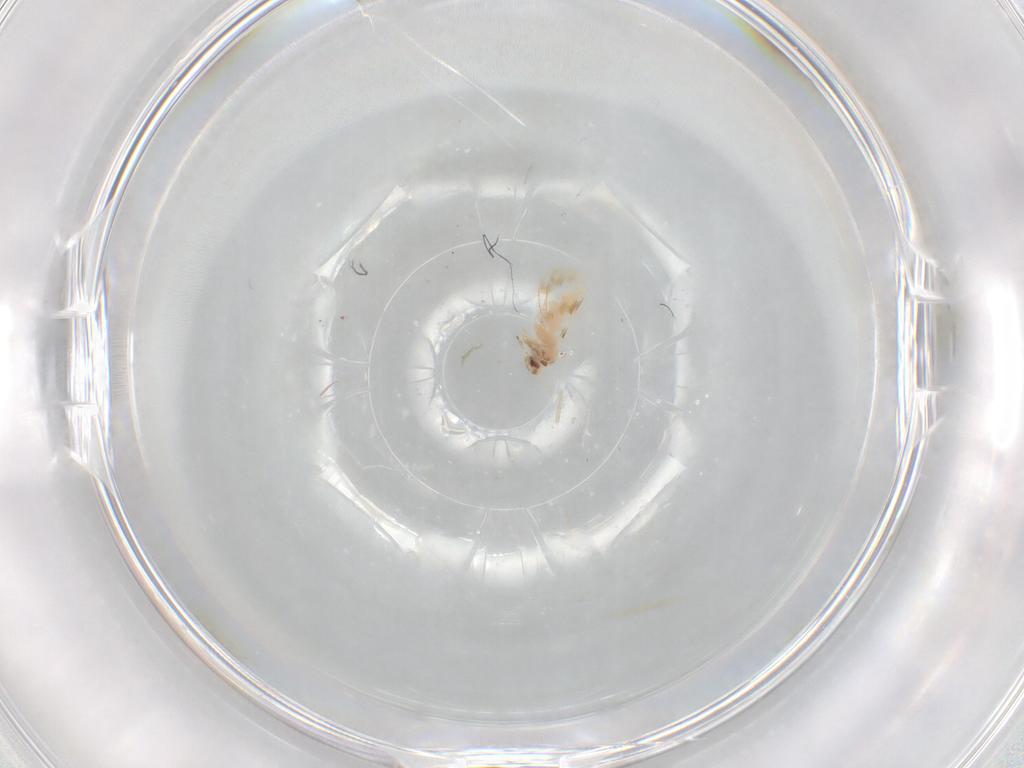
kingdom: Animalia
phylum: Arthropoda
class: Insecta
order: Hemiptera
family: Aleyrodidae
